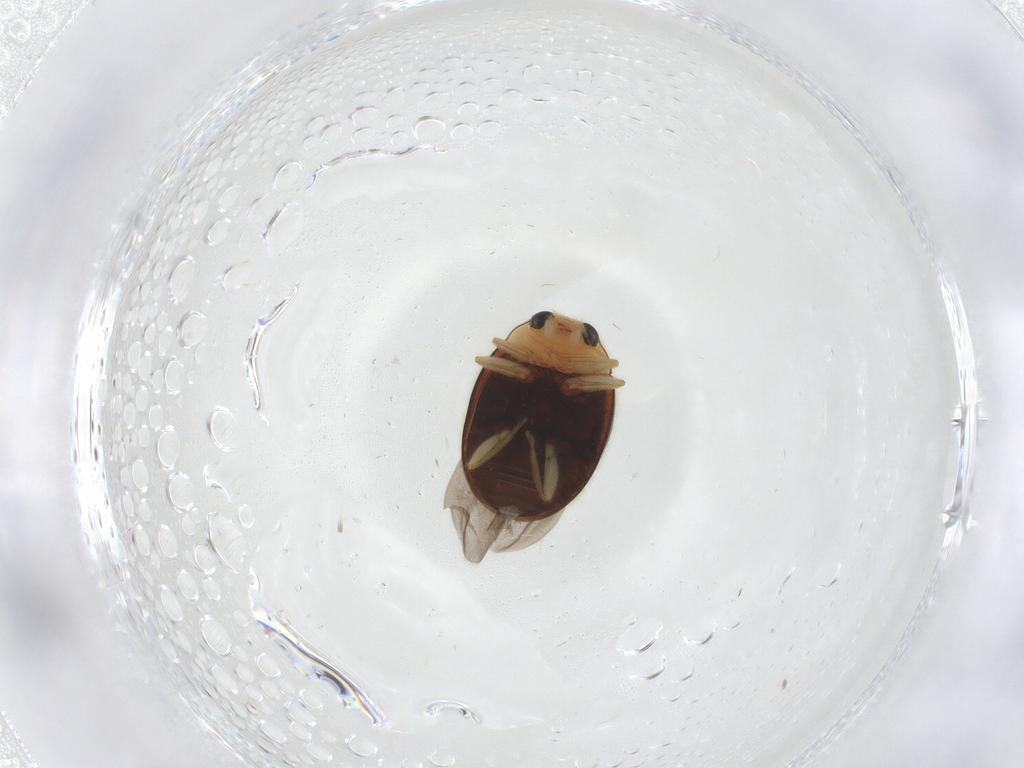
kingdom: Animalia
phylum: Arthropoda
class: Insecta
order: Coleoptera
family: Coccinellidae
